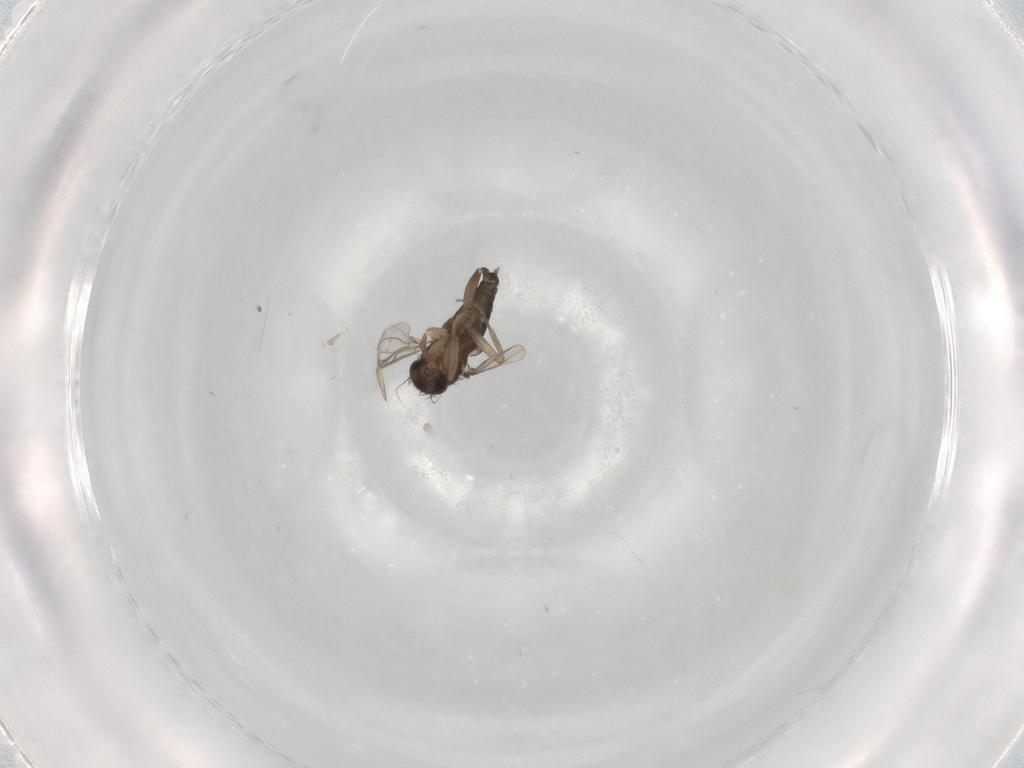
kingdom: Animalia
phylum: Arthropoda
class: Insecta
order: Diptera
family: Phoridae
